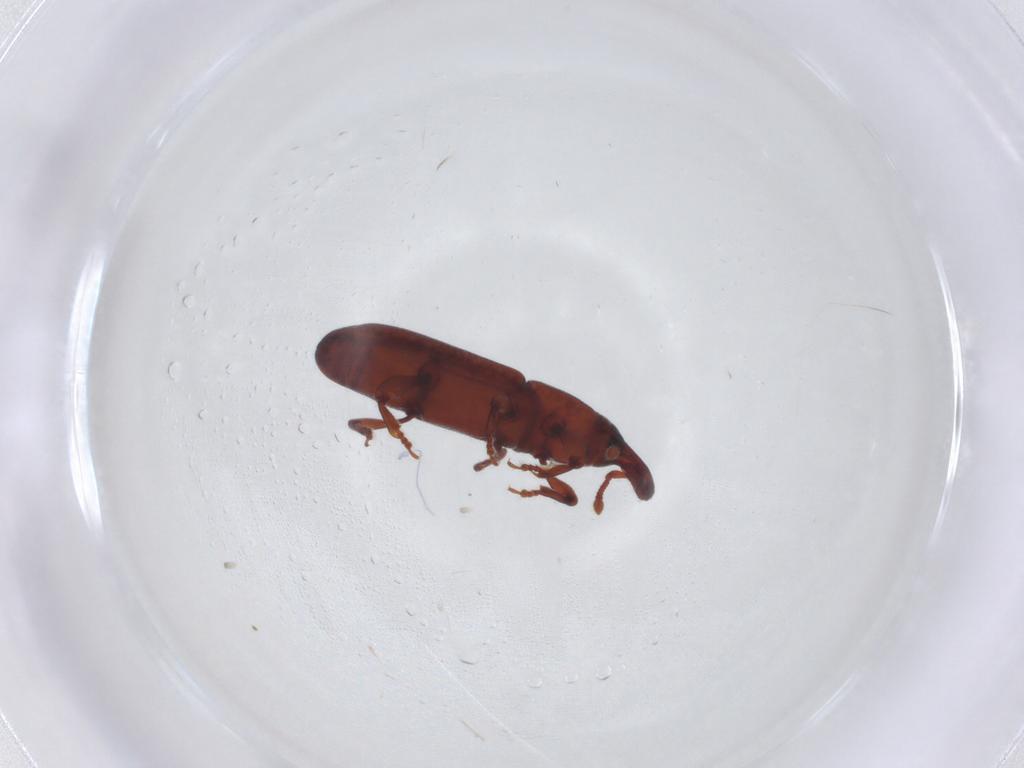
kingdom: Animalia
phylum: Arthropoda
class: Insecta
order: Coleoptera
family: Curculionidae
